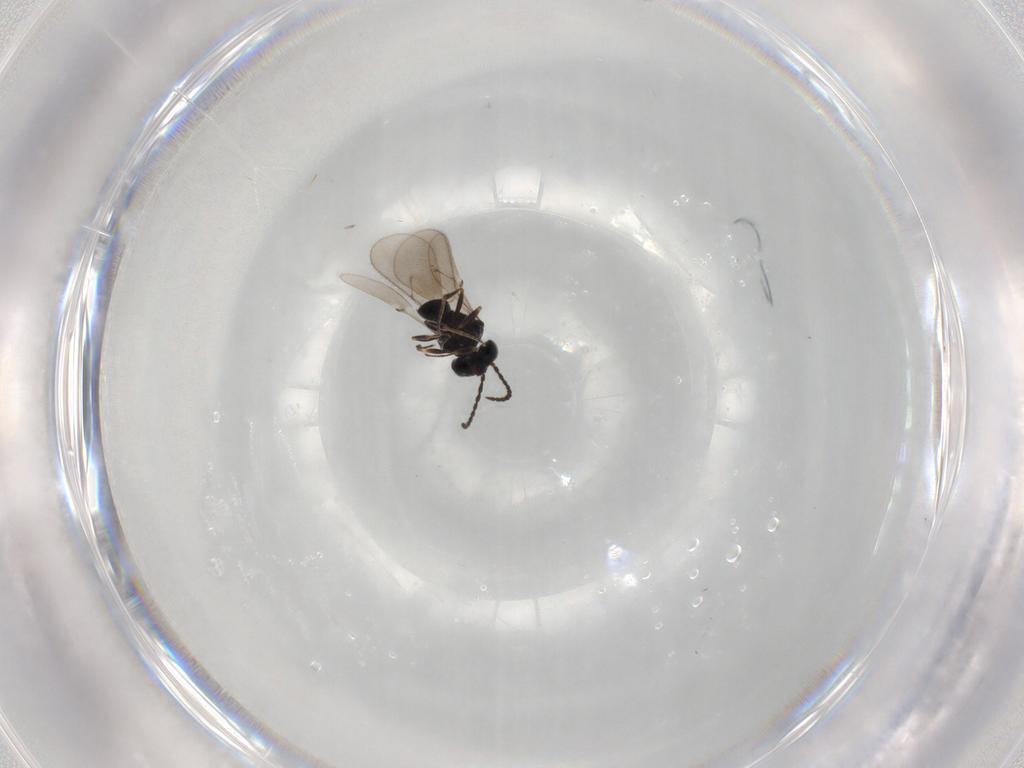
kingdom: Animalia
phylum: Arthropoda
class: Insecta
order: Hymenoptera
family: Scelionidae
